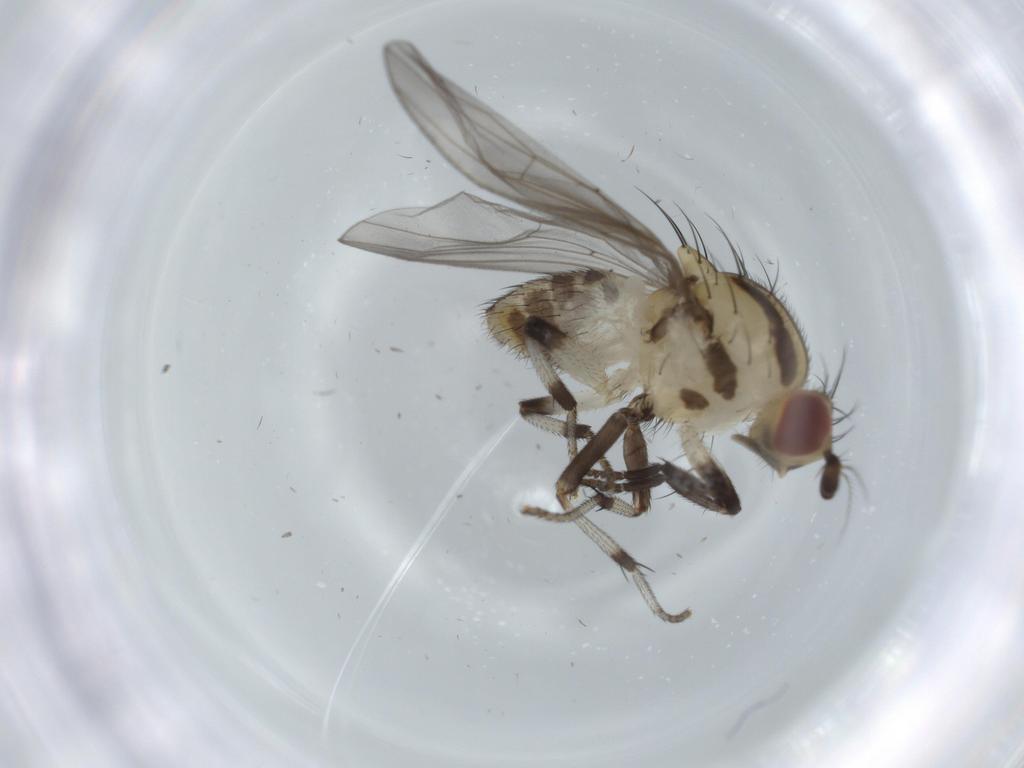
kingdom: Animalia
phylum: Arthropoda
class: Insecta
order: Diptera
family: Lauxaniidae
